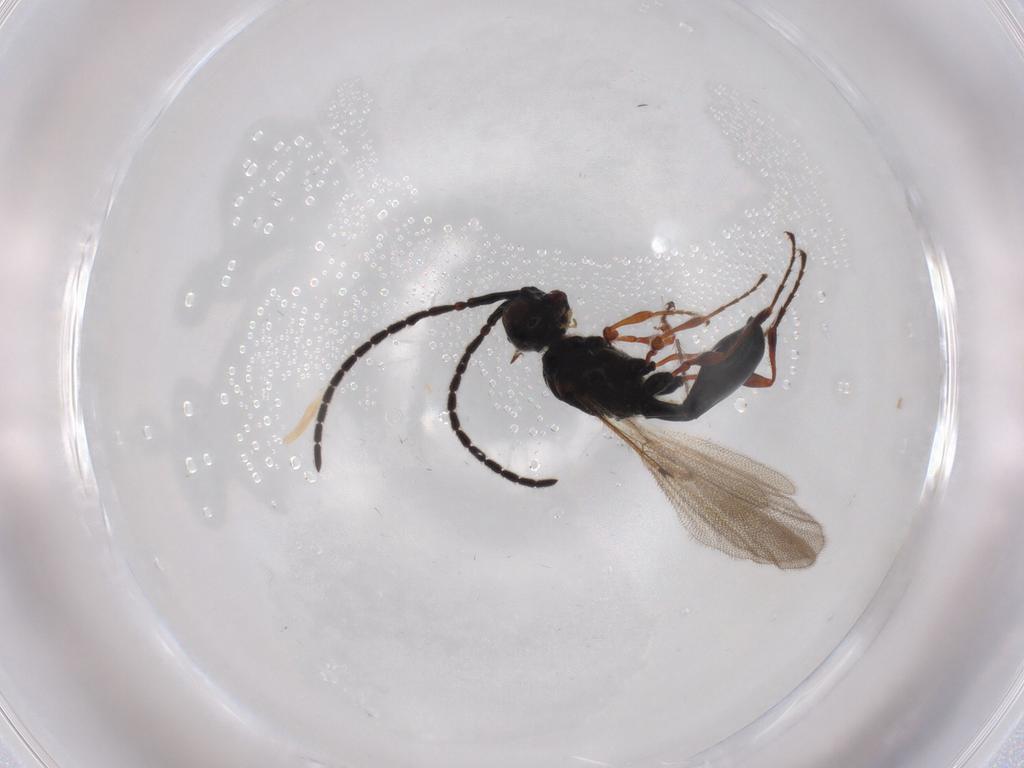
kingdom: Animalia
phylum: Arthropoda
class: Insecta
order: Hymenoptera
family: Diapriidae
